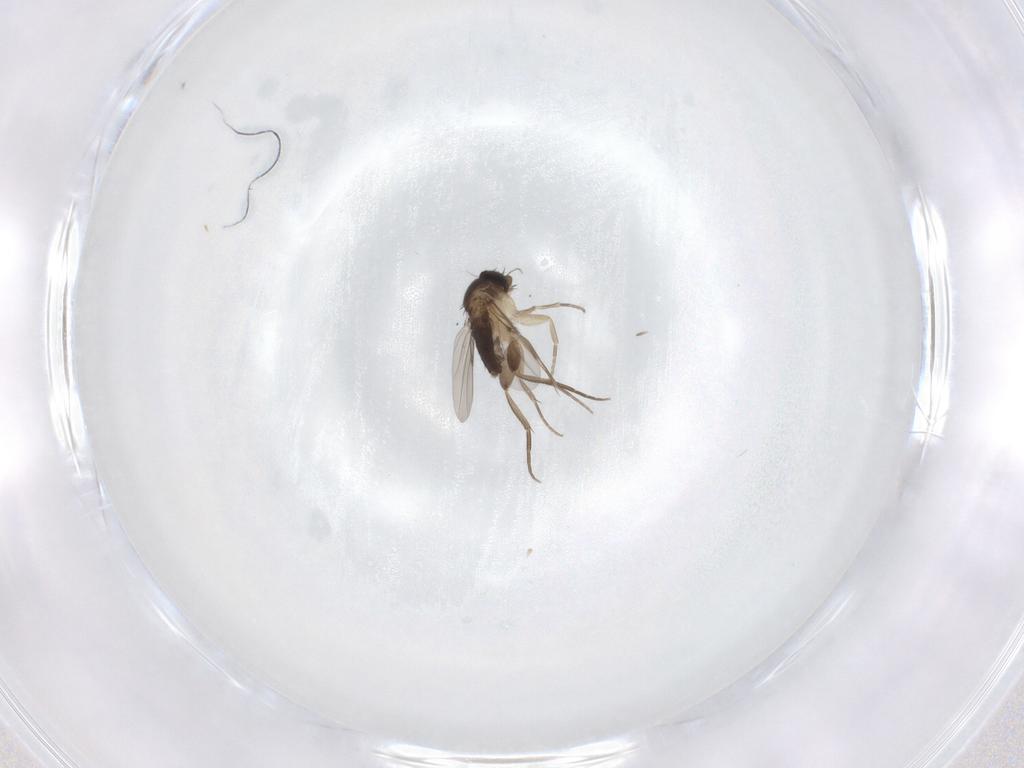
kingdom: Animalia
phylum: Arthropoda
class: Insecta
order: Diptera
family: Phoridae
